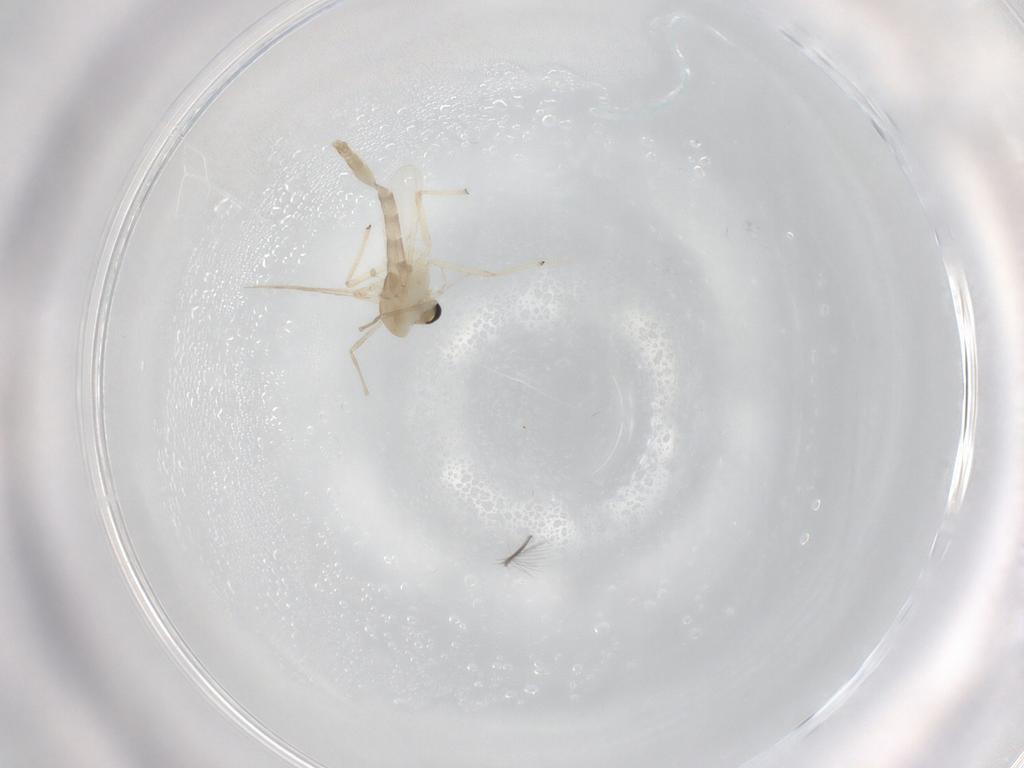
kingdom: Animalia
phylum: Arthropoda
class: Insecta
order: Diptera
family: Chironomidae
